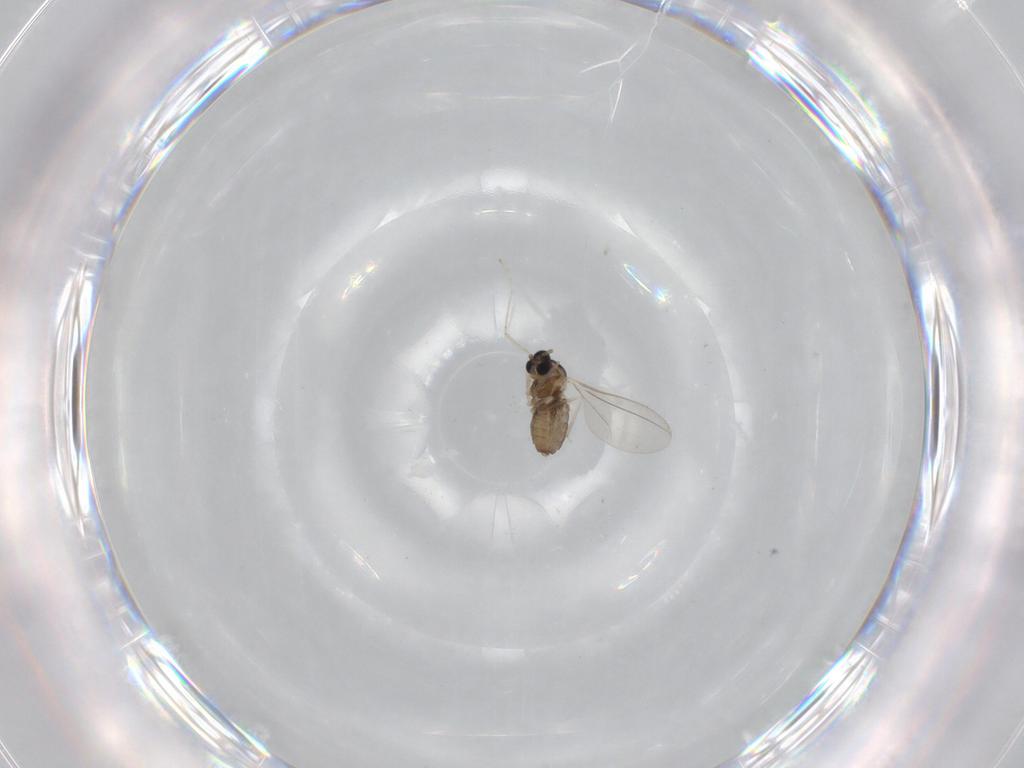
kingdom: Animalia
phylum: Arthropoda
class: Insecta
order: Diptera
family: Cecidomyiidae
